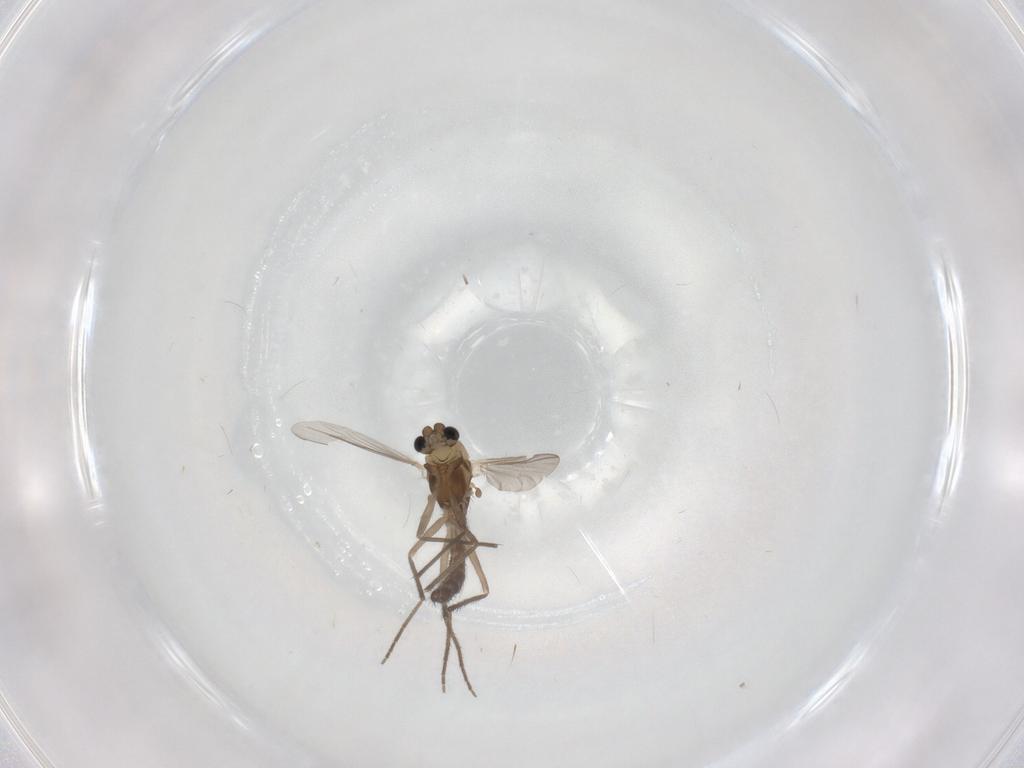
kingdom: Animalia
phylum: Arthropoda
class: Insecta
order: Diptera
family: Chironomidae
